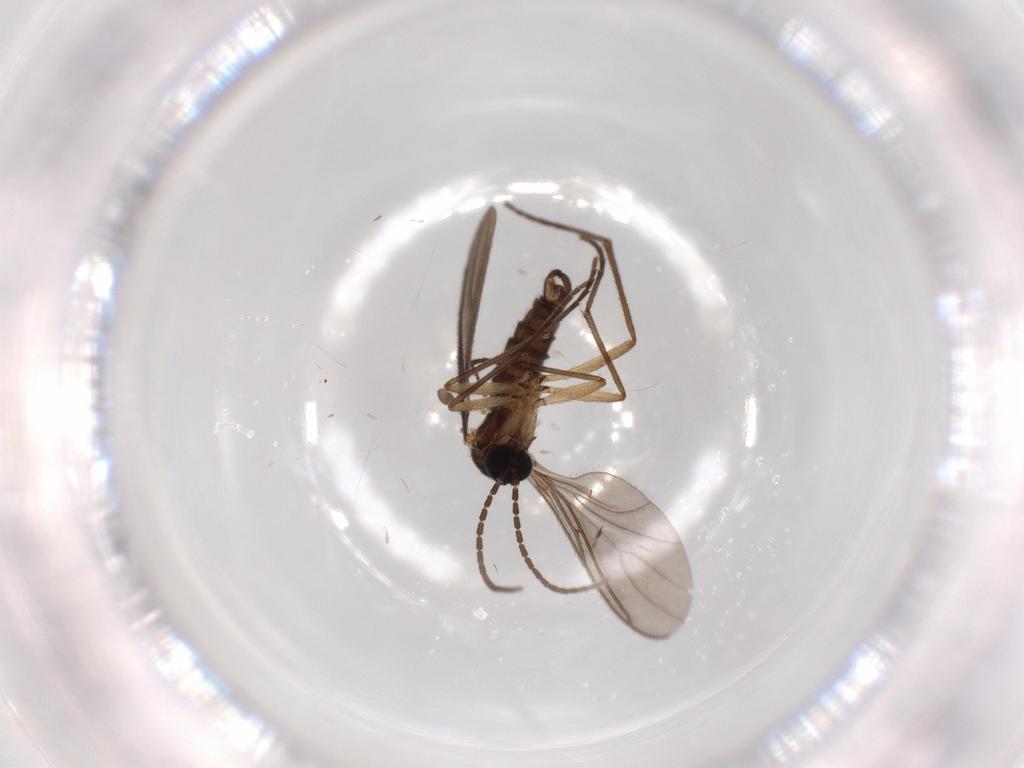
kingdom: Animalia
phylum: Arthropoda
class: Insecta
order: Diptera
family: Sciaridae
